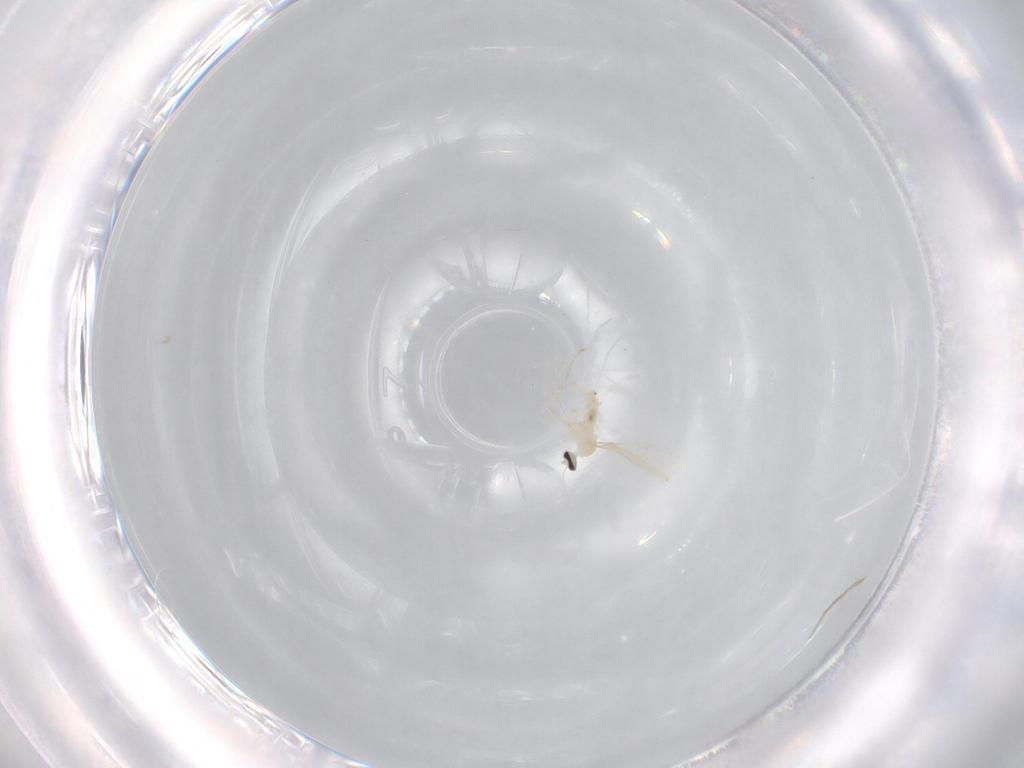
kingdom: Animalia
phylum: Arthropoda
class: Insecta
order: Diptera
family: Cecidomyiidae
